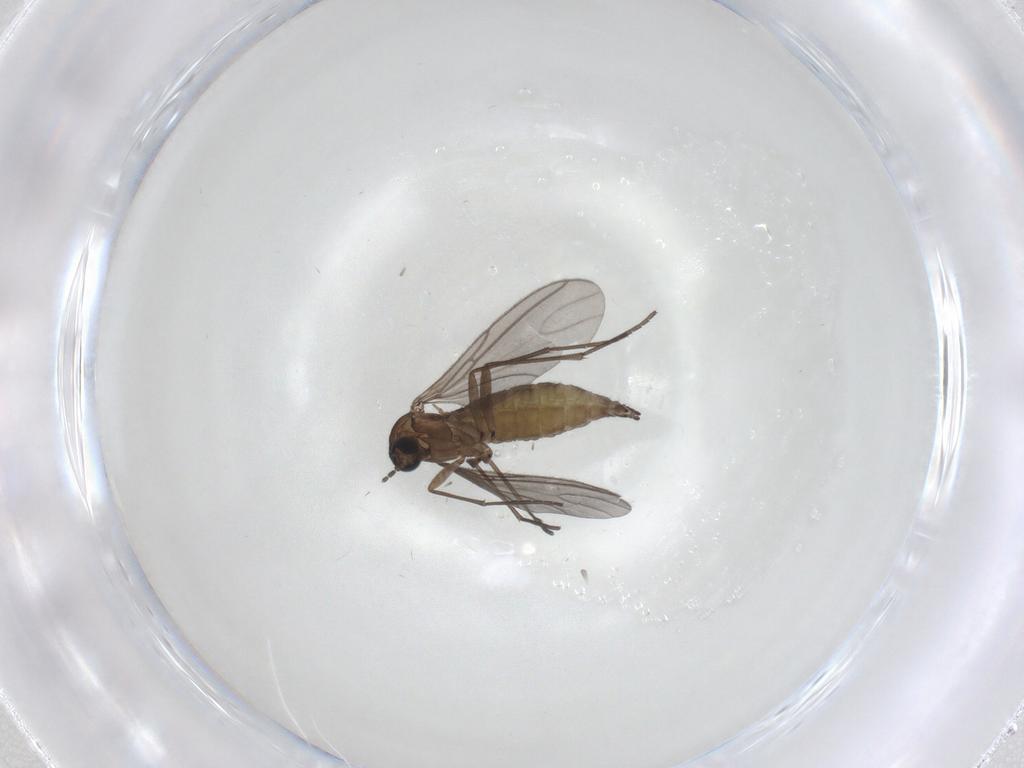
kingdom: Animalia
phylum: Arthropoda
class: Insecta
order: Diptera
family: Sciaridae
